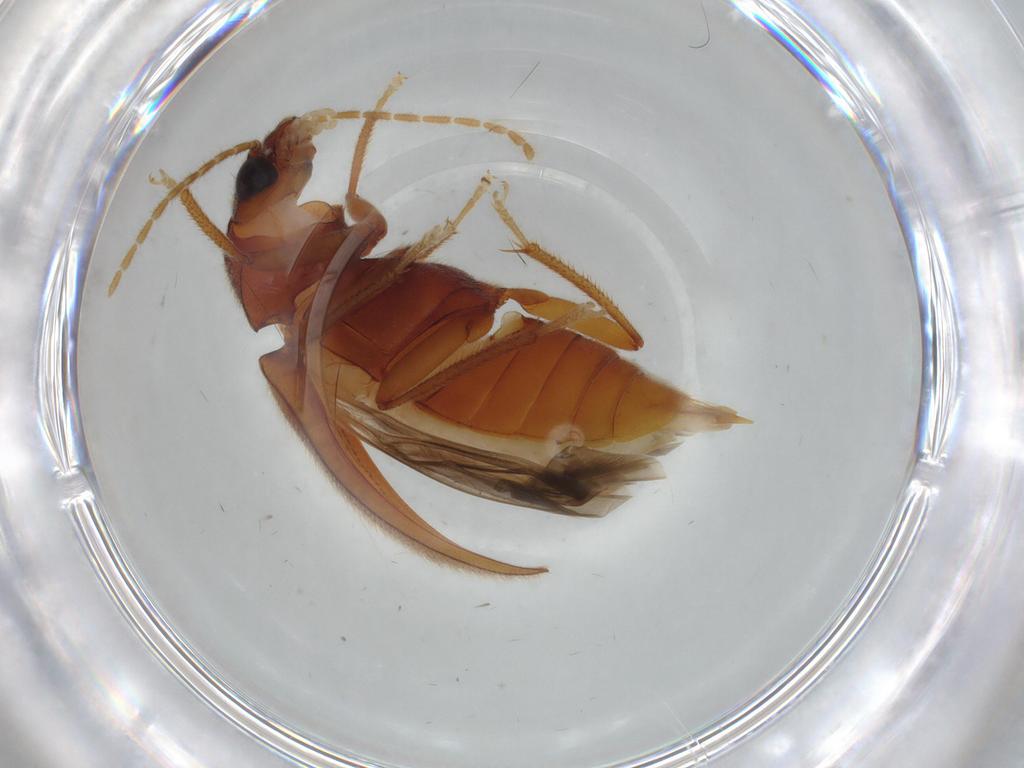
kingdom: Animalia
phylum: Arthropoda
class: Insecta
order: Coleoptera
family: Ptilodactylidae
